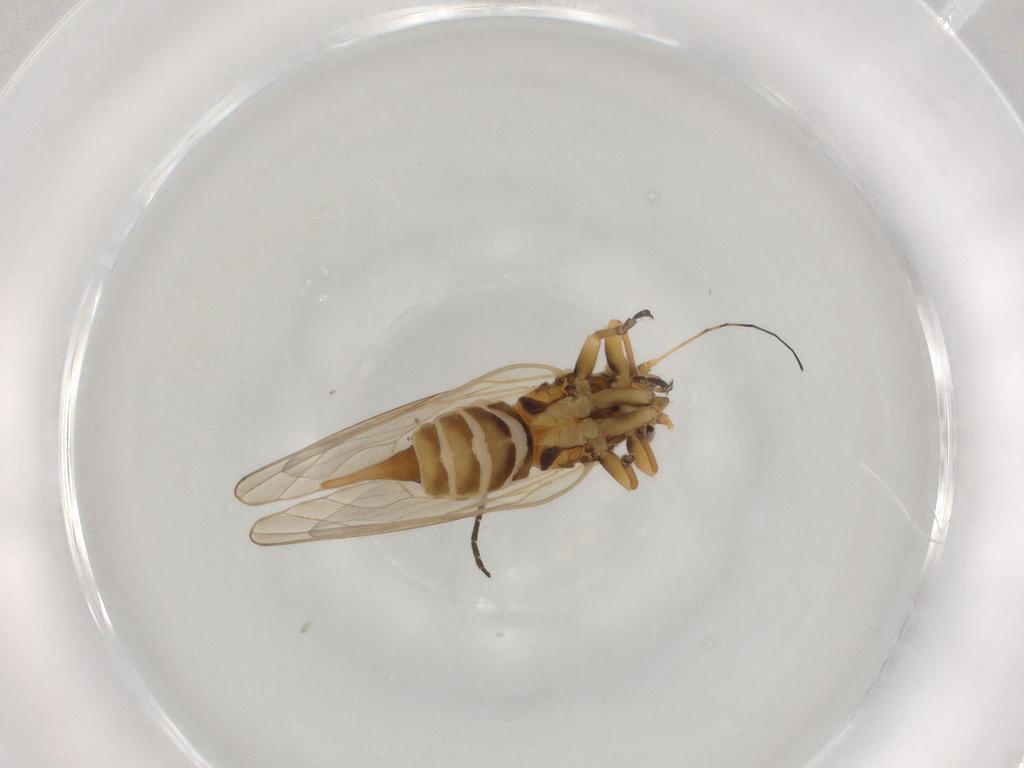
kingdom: Animalia
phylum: Arthropoda
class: Insecta
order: Hemiptera
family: Psyllidae
